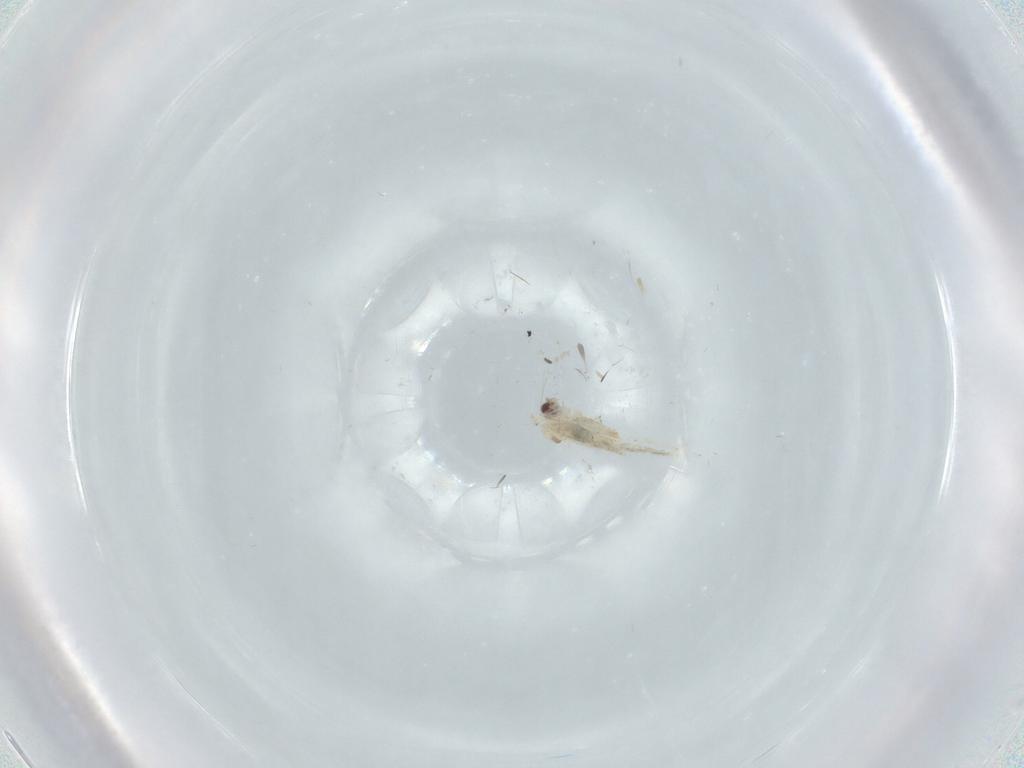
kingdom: Animalia
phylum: Arthropoda
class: Insecta
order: Diptera
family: Cecidomyiidae
